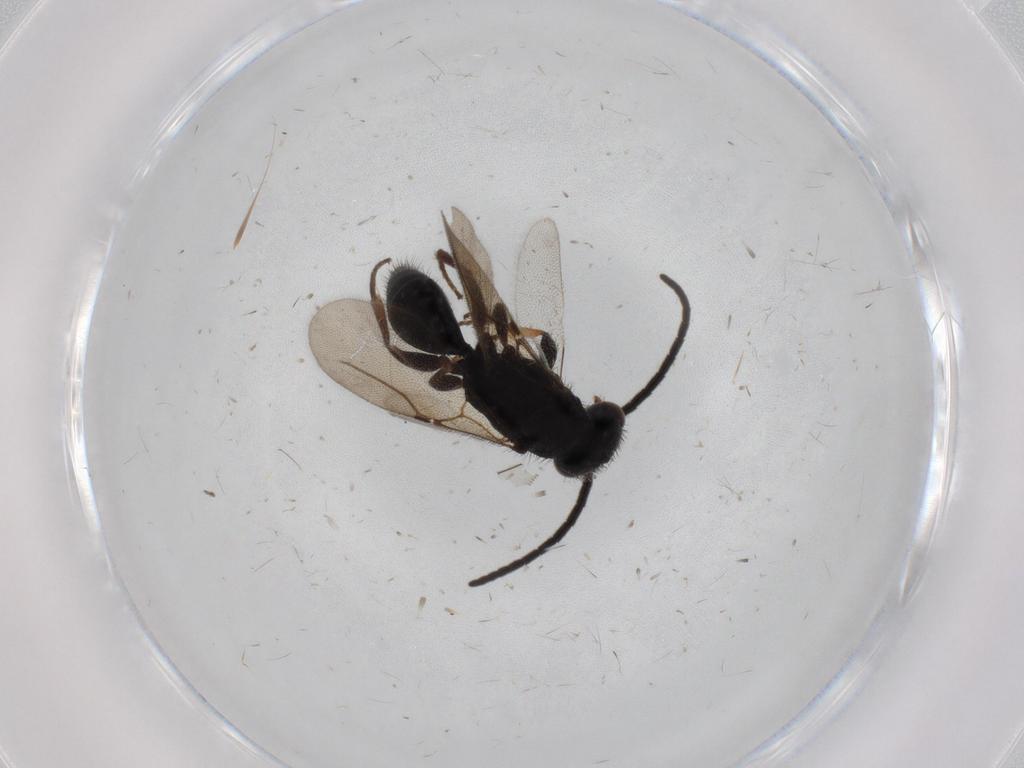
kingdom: Animalia
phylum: Arthropoda
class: Insecta
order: Hymenoptera
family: Bethylidae
